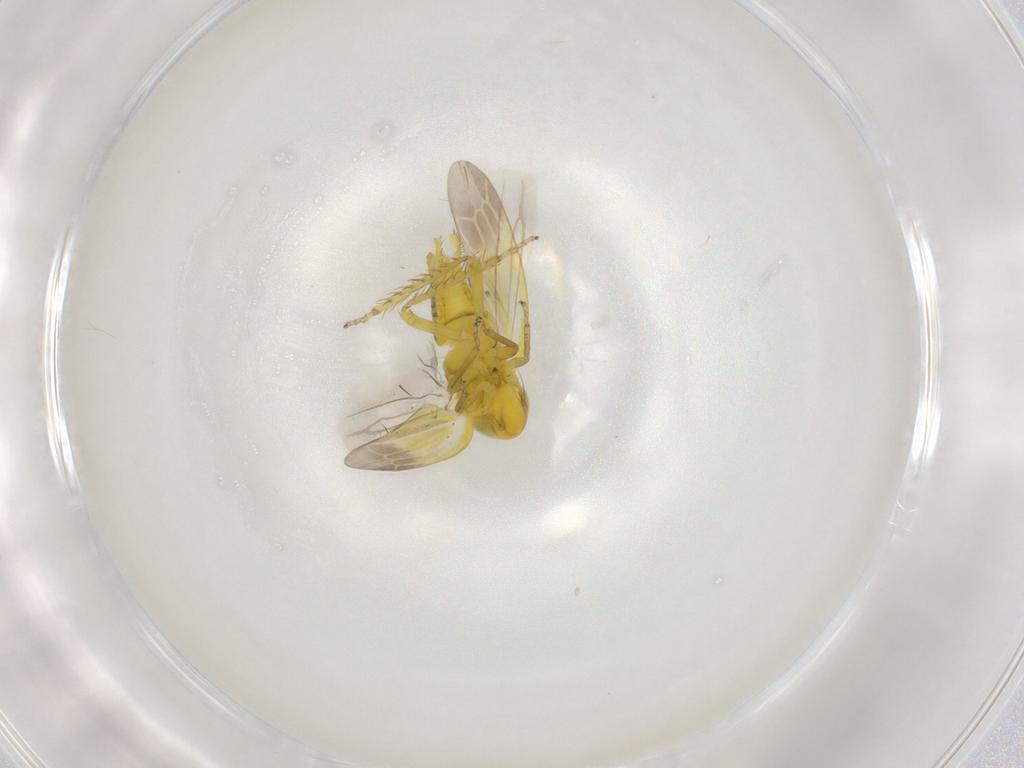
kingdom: Animalia
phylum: Arthropoda
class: Insecta
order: Hemiptera
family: Cicadellidae
